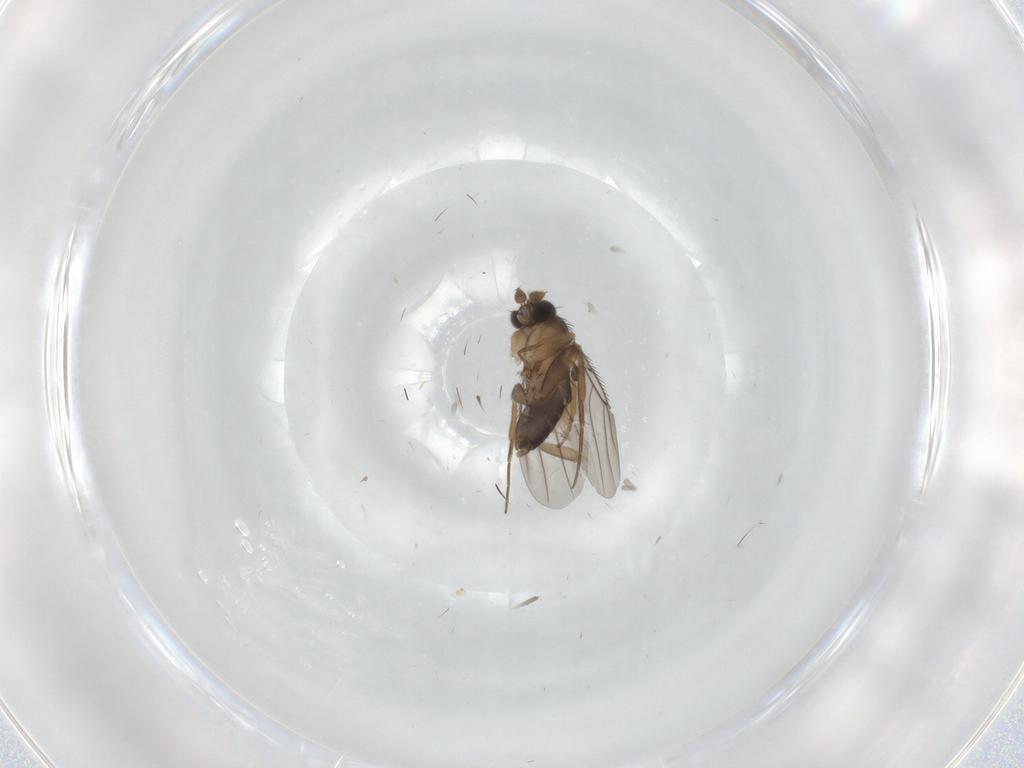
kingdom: Animalia
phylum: Arthropoda
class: Insecta
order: Diptera
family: Phoridae
